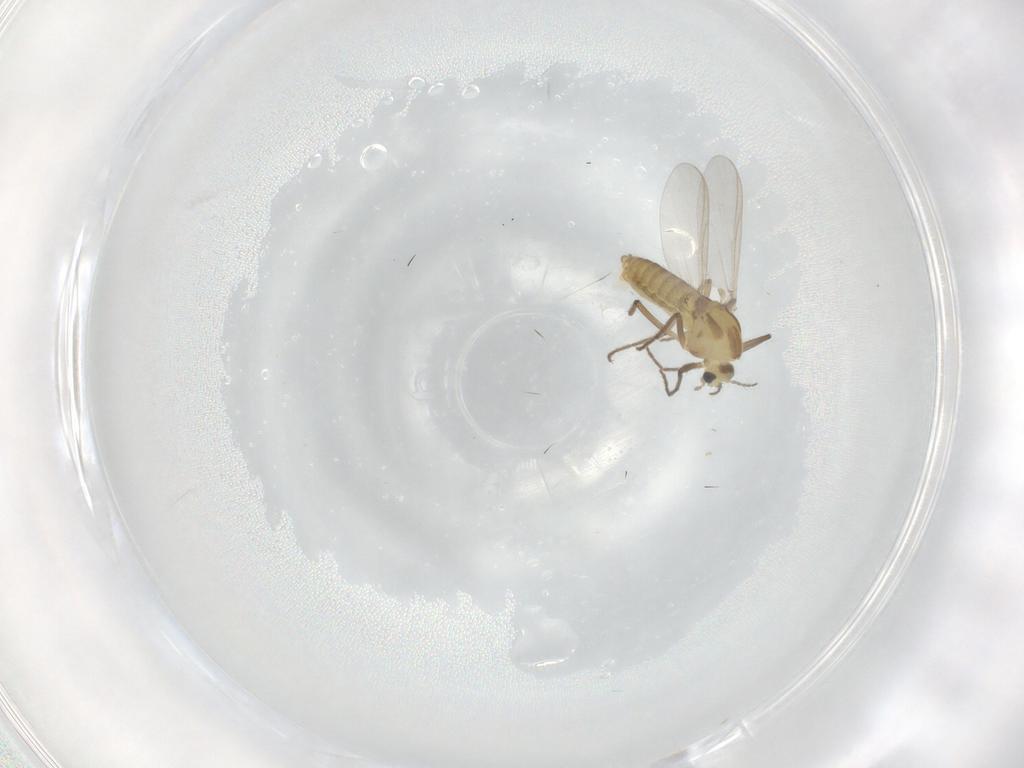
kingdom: Animalia
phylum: Arthropoda
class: Insecta
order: Diptera
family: Chironomidae
